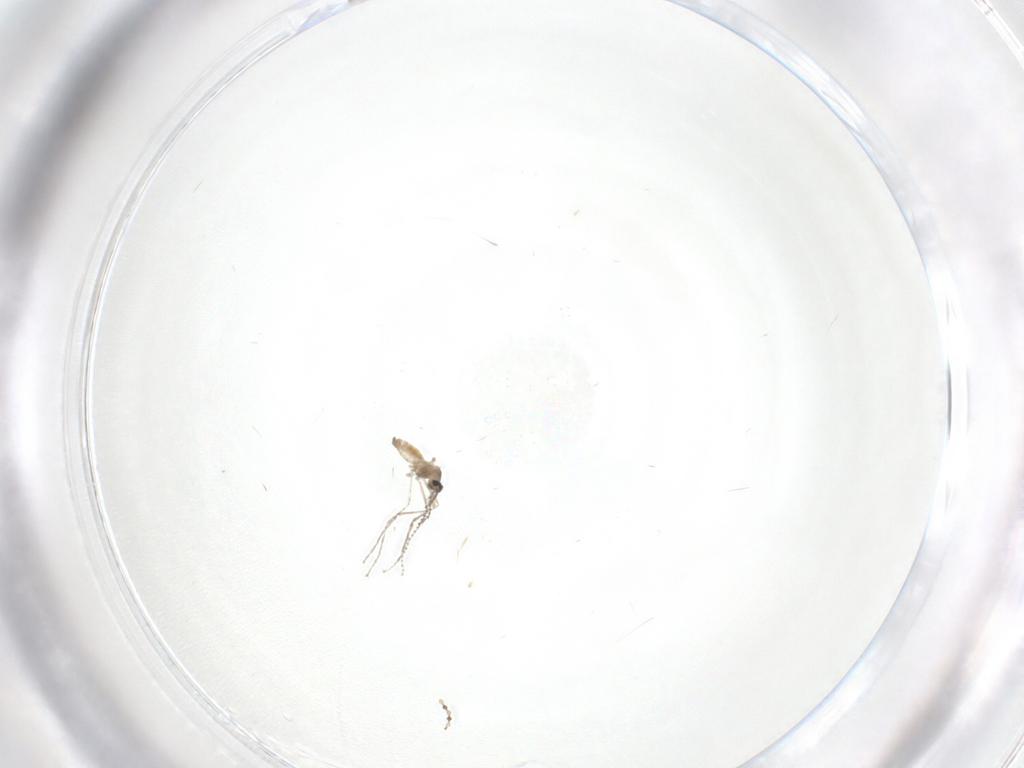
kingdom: Animalia
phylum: Arthropoda
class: Insecta
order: Diptera
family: Cecidomyiidae
